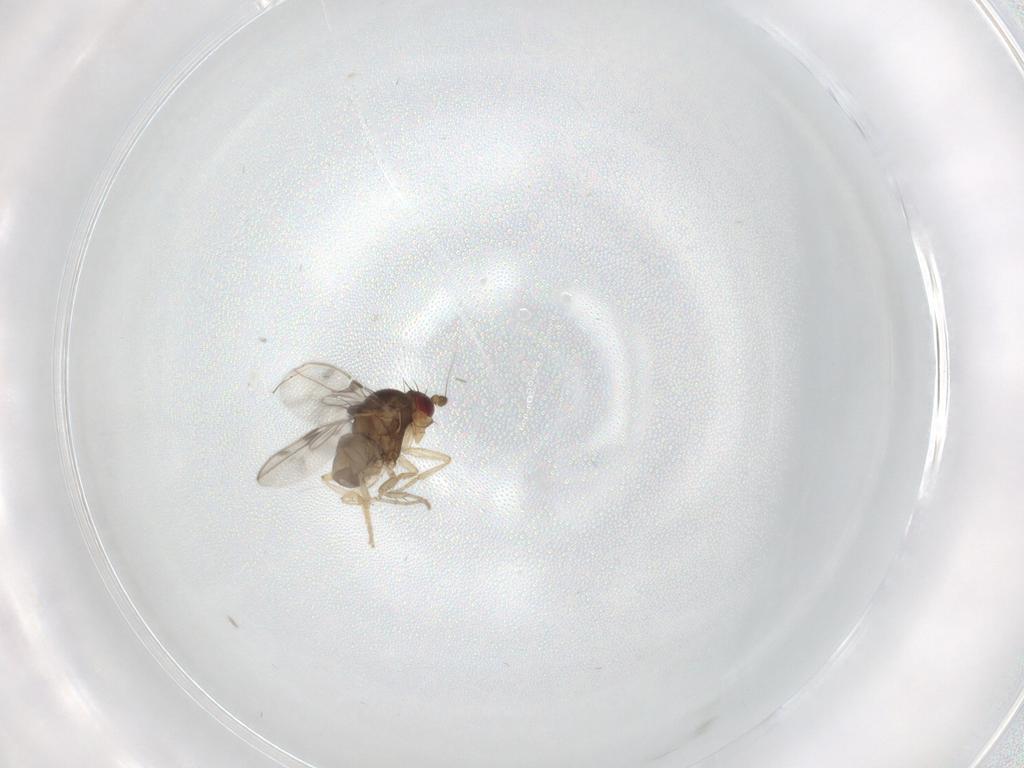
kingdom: Animalia
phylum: Arthropoda
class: Insecta
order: Diptera
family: Sphaeroceridae
